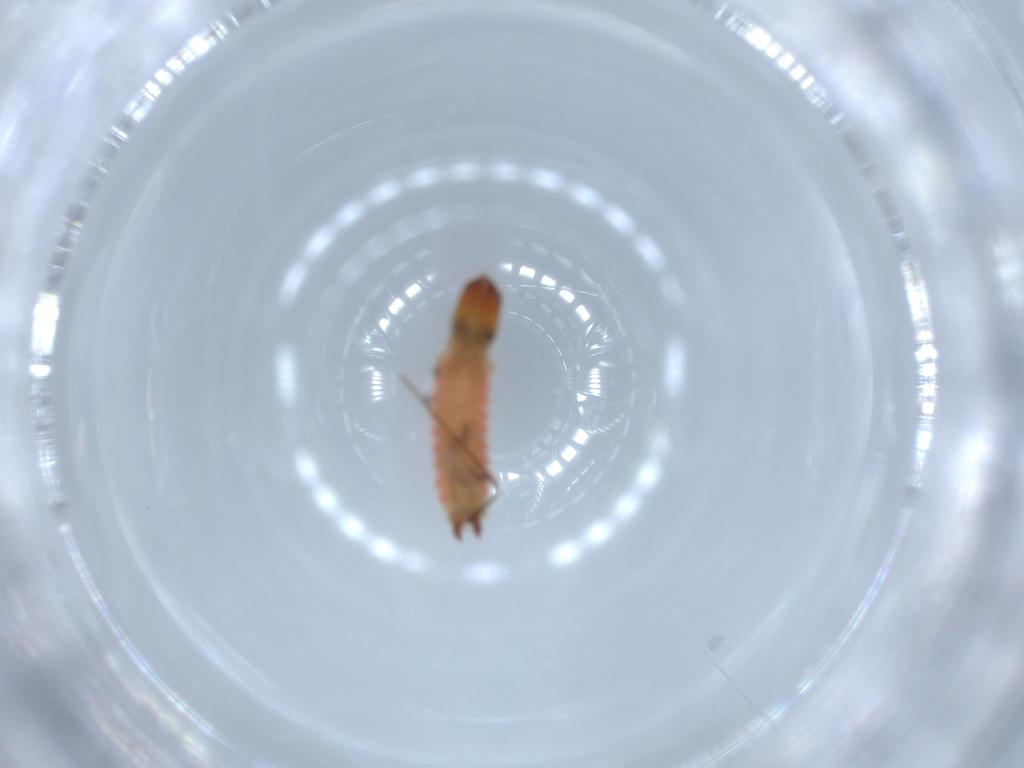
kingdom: Animalia
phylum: Arthropoda
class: Insecta
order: Coleoptera
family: Cleridae
